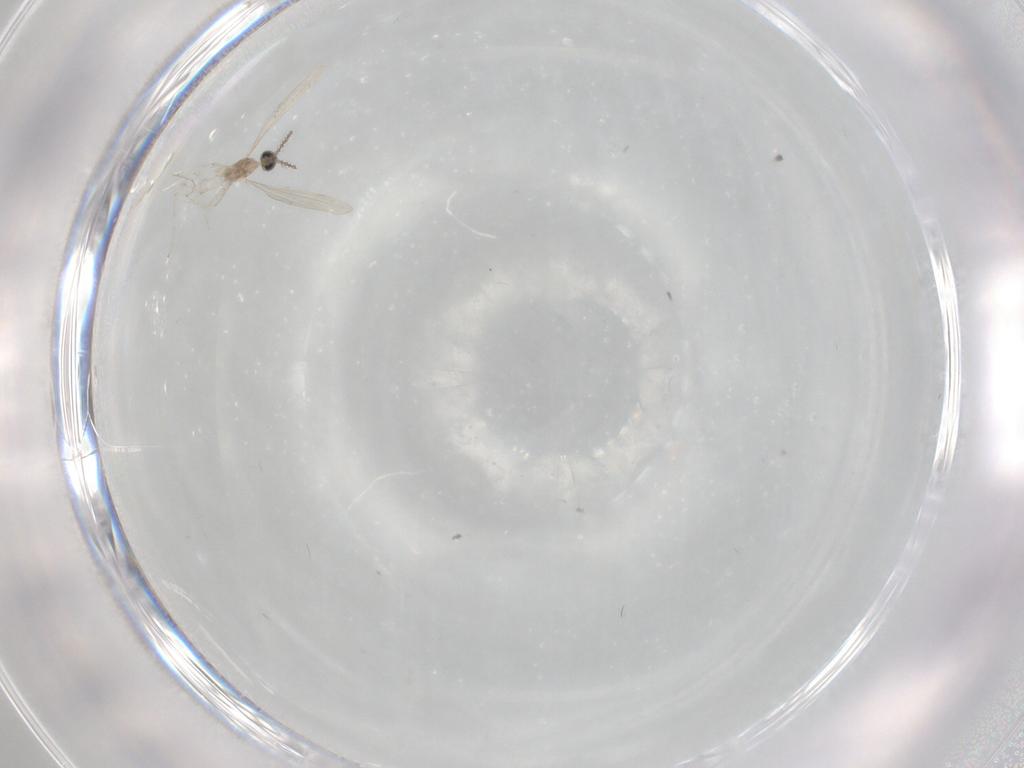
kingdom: Animalia
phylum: Arthropoda
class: Insecta
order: Diptera
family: Chironomidae
